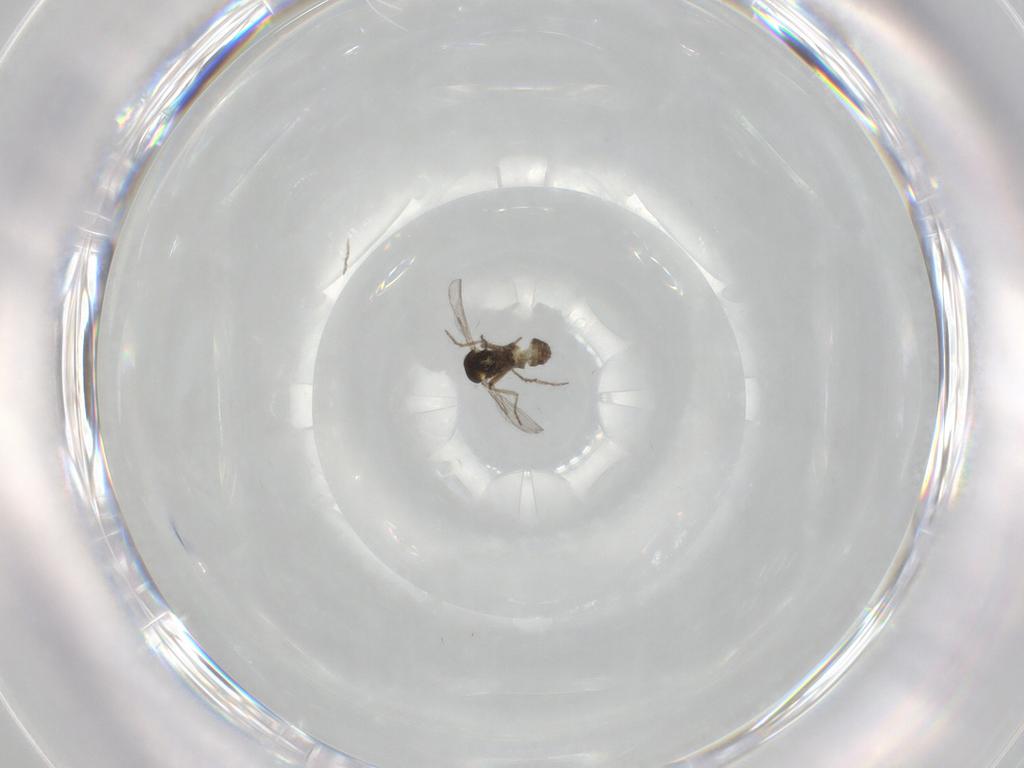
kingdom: Animalia
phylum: Arthropoda
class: Insecta
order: Diptera
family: Ceratopogonidae
